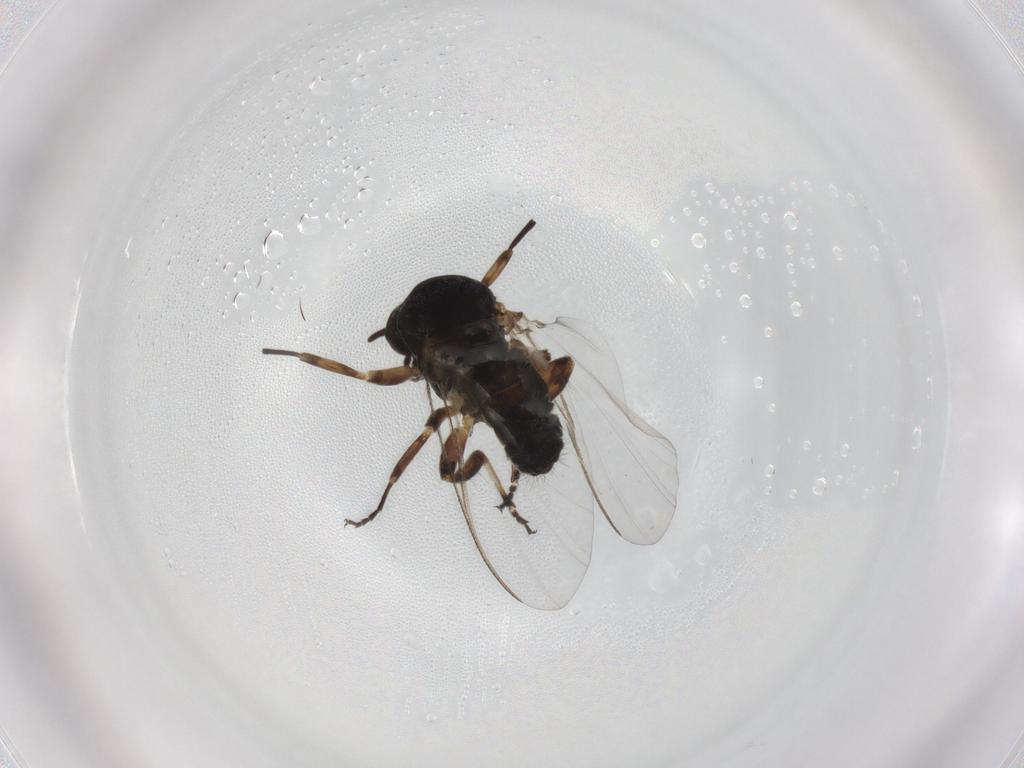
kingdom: Animalia
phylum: Arthropoda
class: Insecta
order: Diptera
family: Scatopsidae
